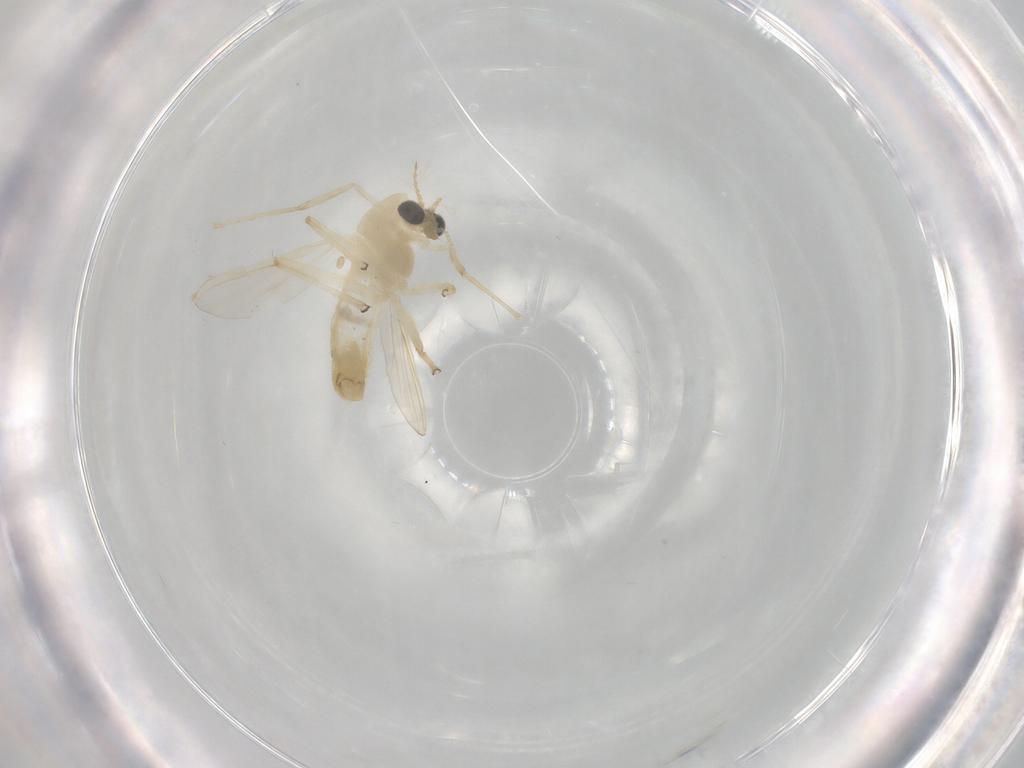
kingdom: Animalia
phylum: Arthropoda
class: Insecta
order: Diptera
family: Chironomidae
